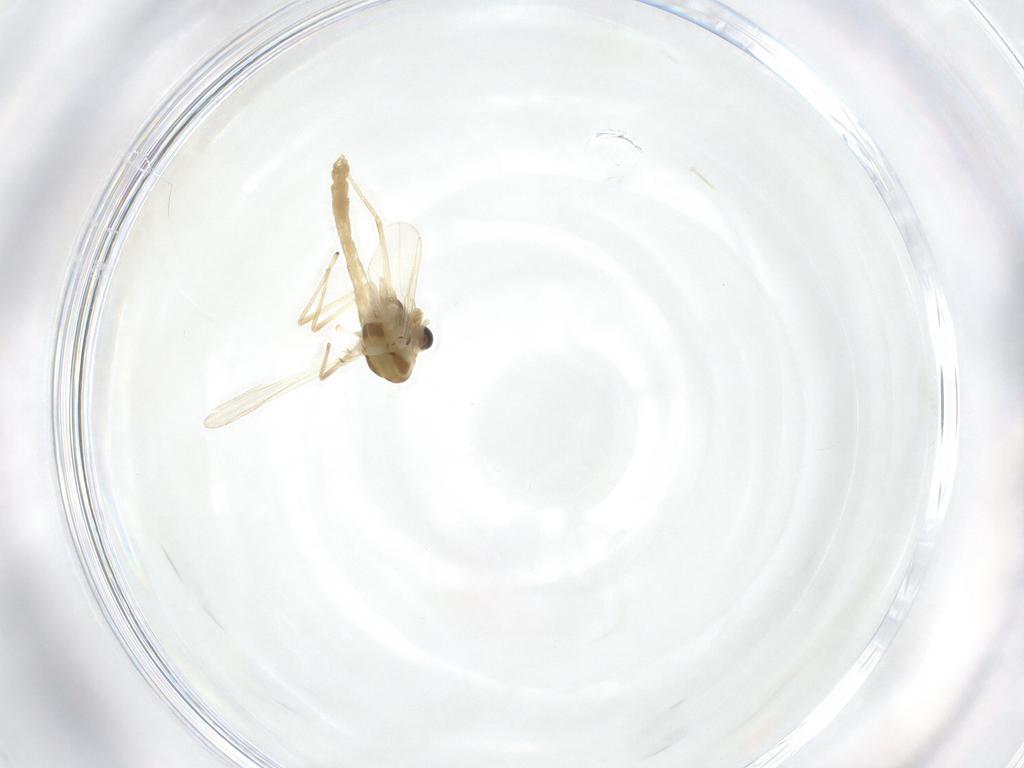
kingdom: Animalia
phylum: Arthropoda
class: Insecta
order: Diptera
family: Chironomidae
